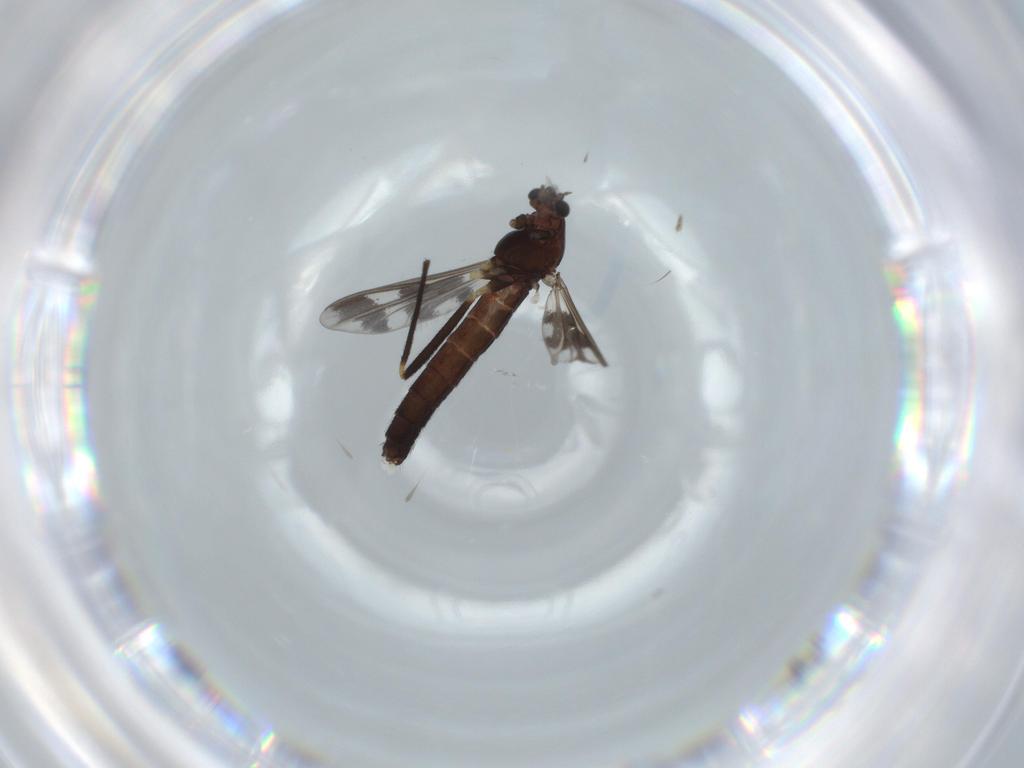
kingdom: Animalia
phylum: Arthropoda
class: Insecta
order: Diptera
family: Chironomidae
